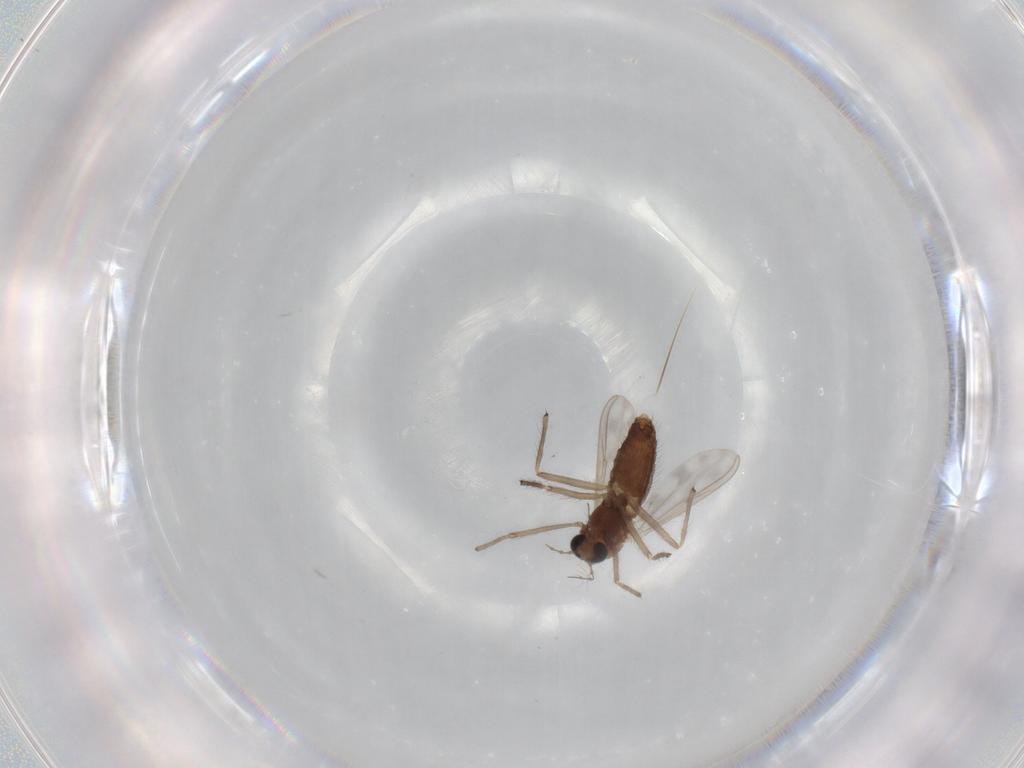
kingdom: Animalia
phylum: Arthropoda
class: Insecta
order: Diptera
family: Chironomidae
